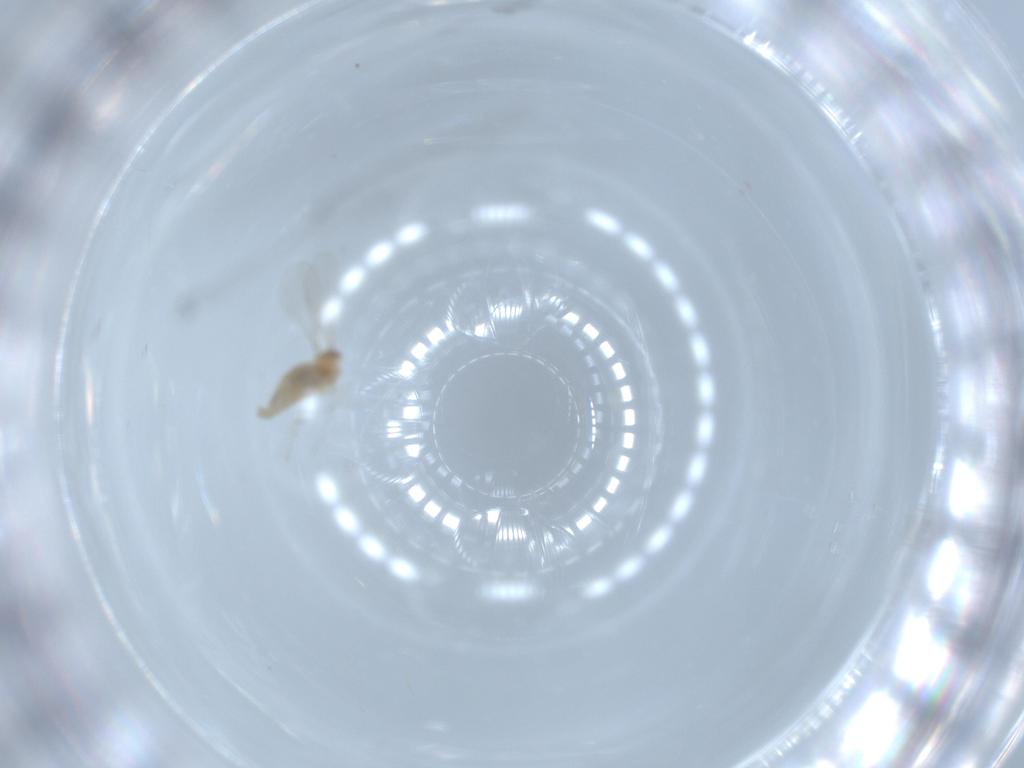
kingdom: Animalia
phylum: Arthropoda
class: Insecta
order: Diptera
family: Cecidomyiidae
